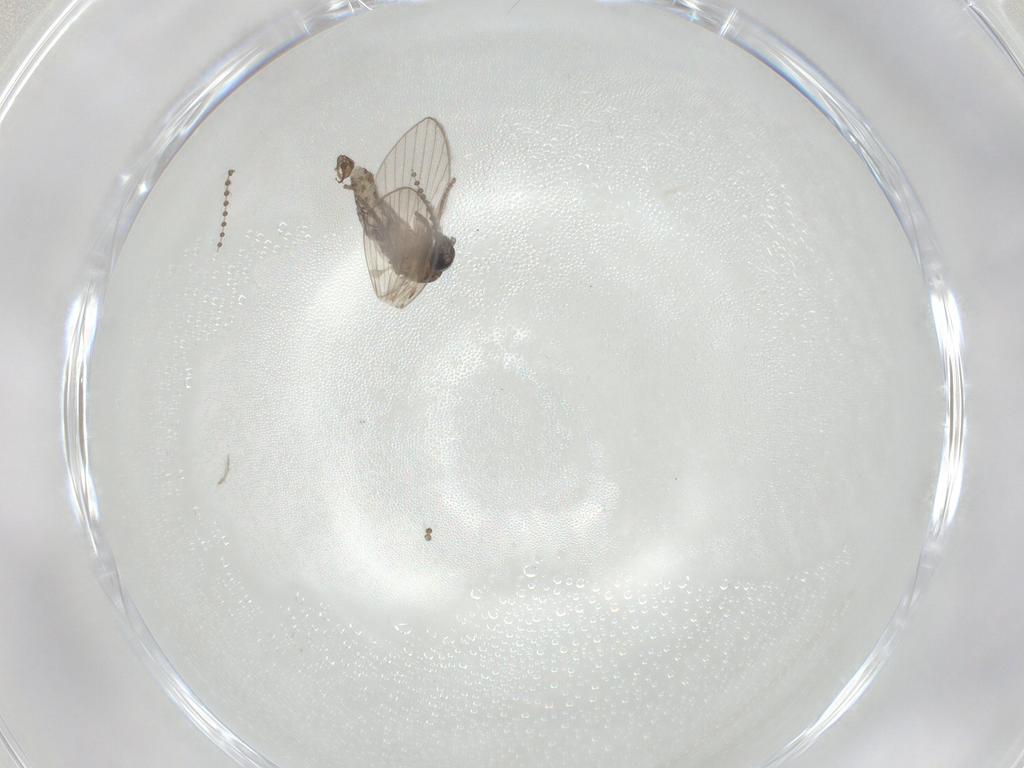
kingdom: Animalia
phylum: Arthropoda
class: Insecta
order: Diptera
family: Psychodidae
